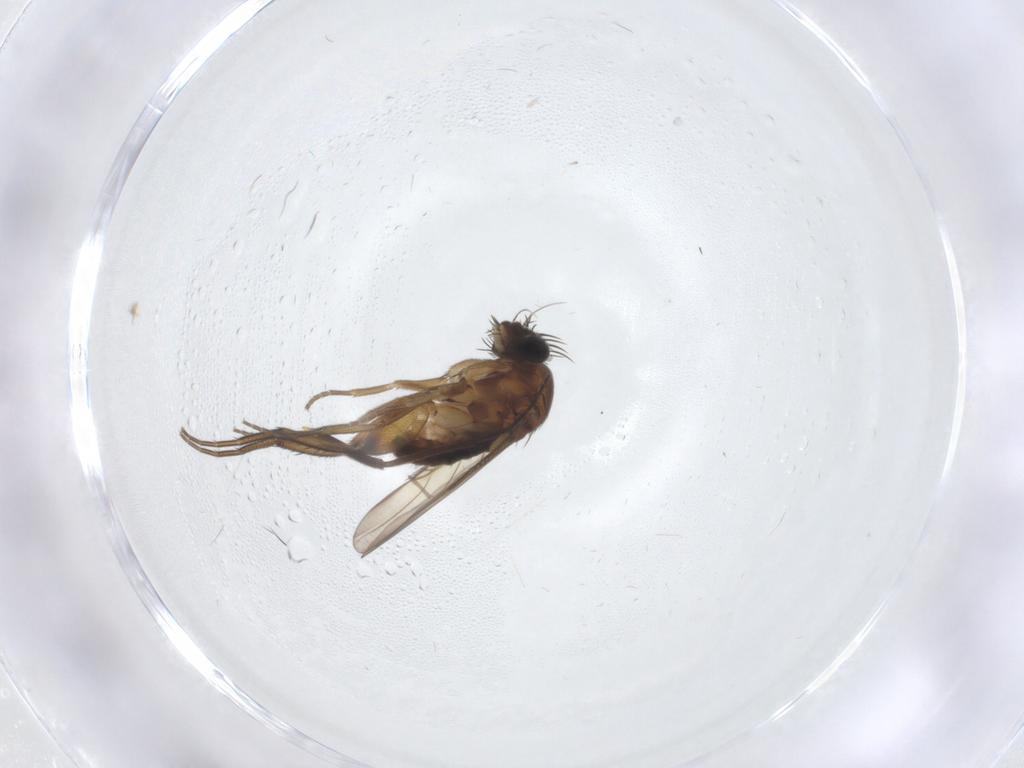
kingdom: Animalia
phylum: Arthropoda
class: Insecta
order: Diptera
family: Phoridae
